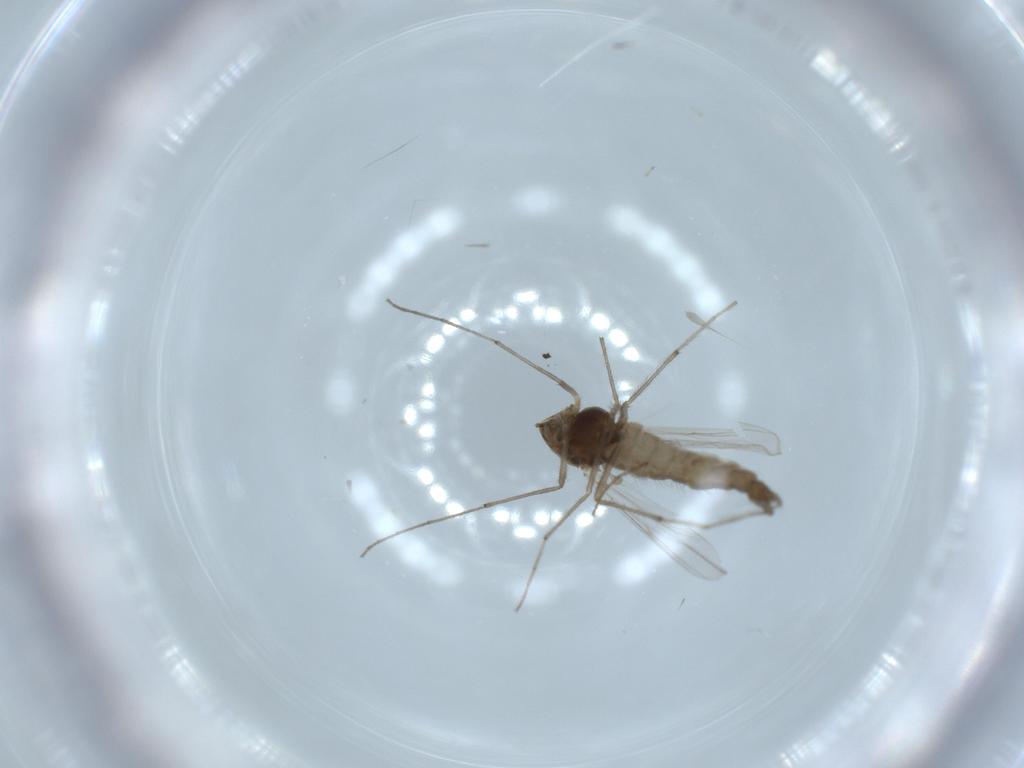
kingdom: Animalia
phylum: Arthropoda
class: Insecta
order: Diptera
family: Chironomidae
